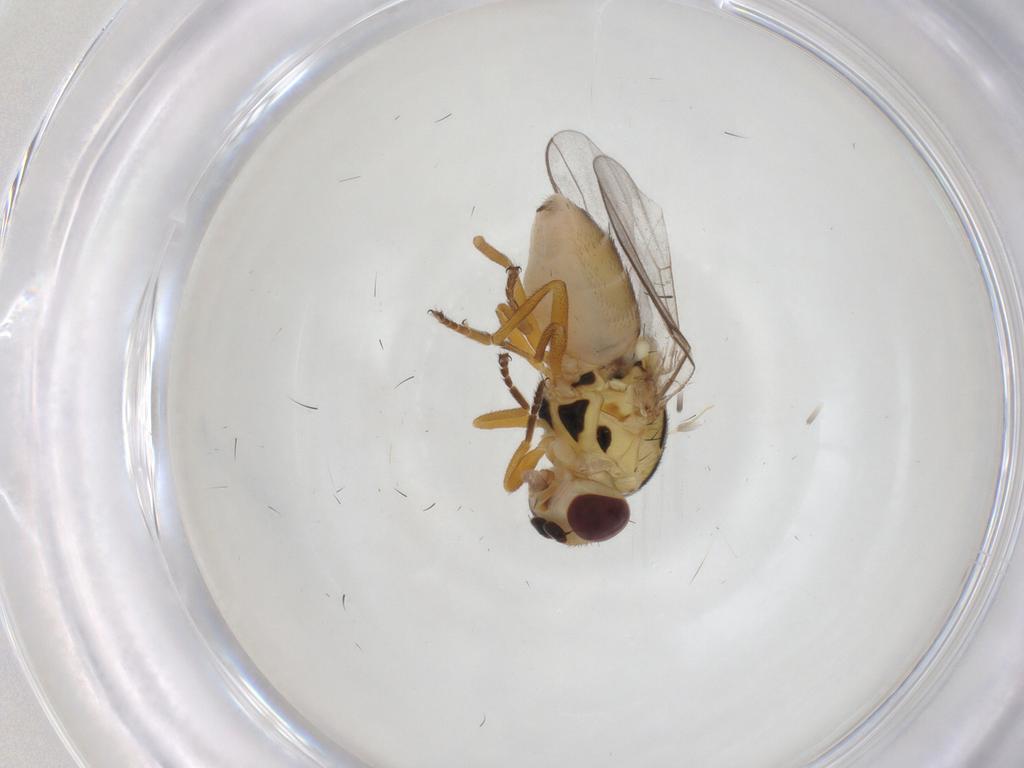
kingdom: Animalia
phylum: Arthropoda
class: Insecta
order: Diptera
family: Chloropidae
